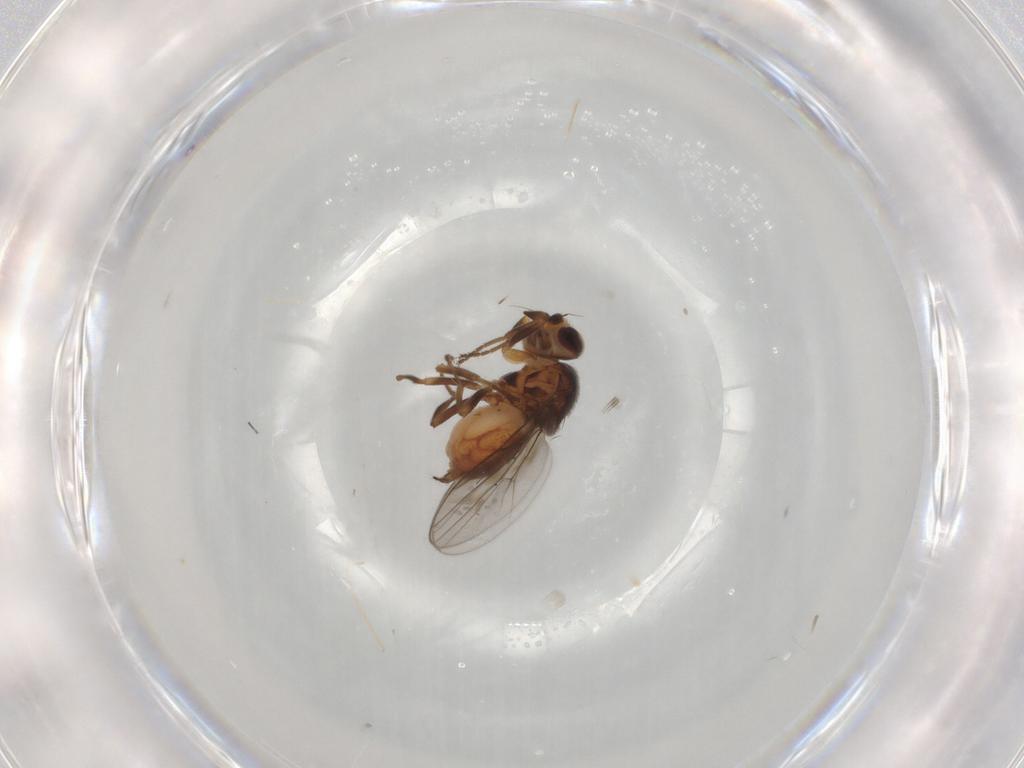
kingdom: Animalia
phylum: Arthropoda
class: Insecta
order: Diptera
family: Chloropidae
